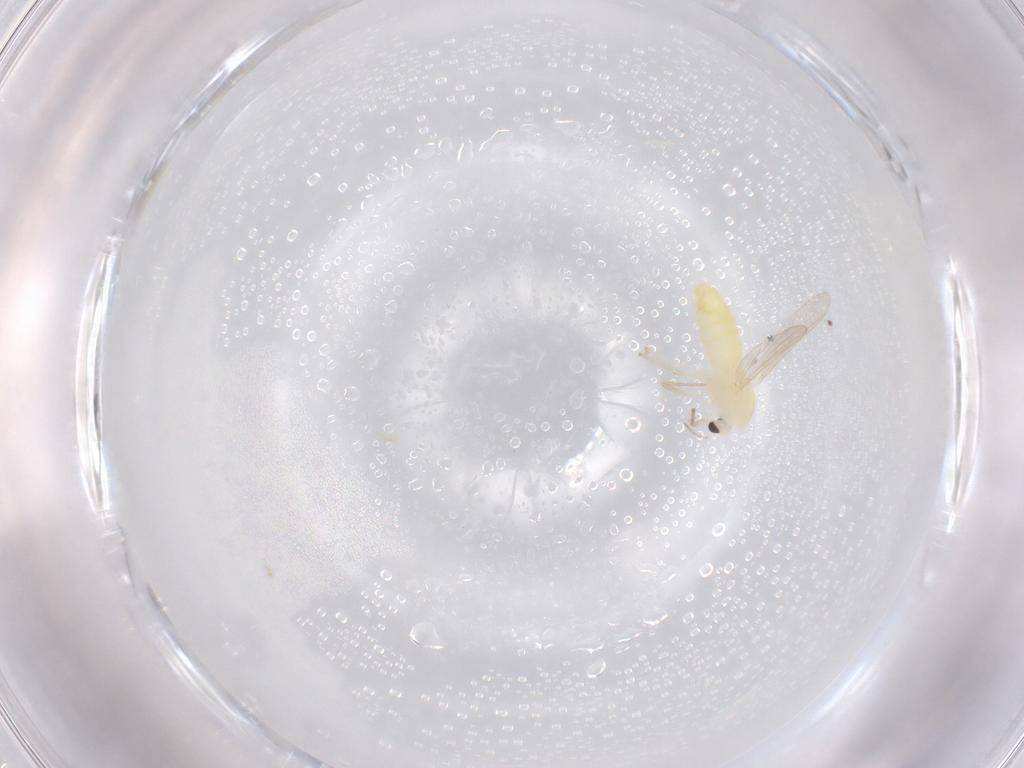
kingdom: Animalia
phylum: Arthropoda
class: Insecta
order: Diptera
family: Chironomidae
